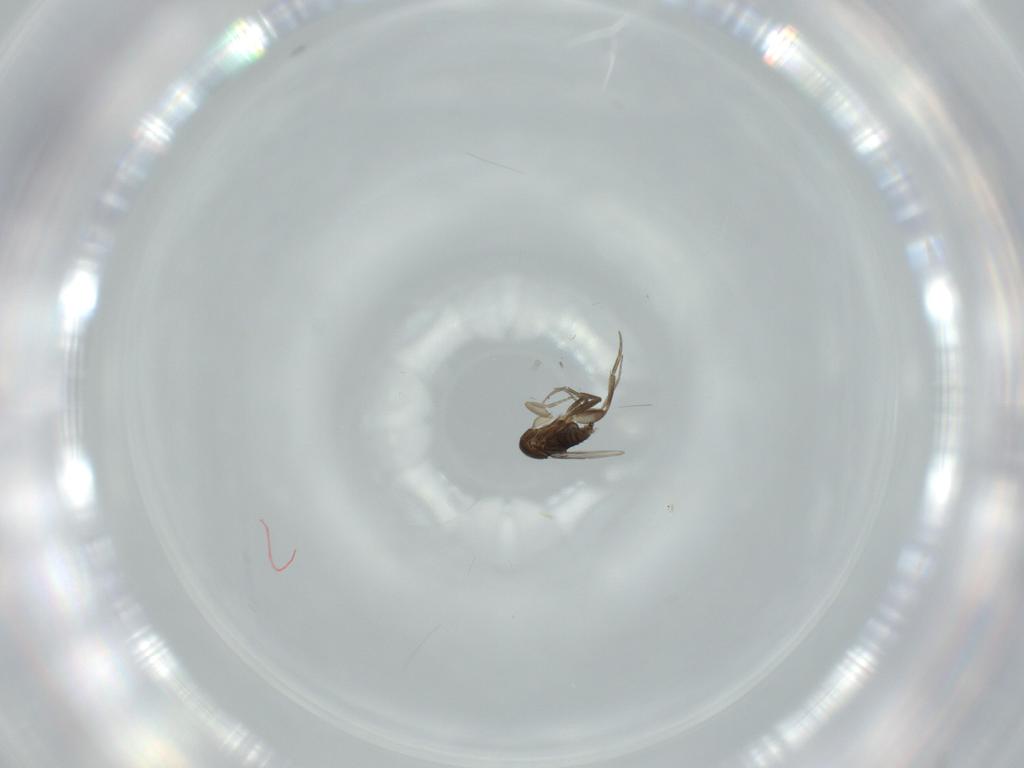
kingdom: Animalia
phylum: Arthropoda
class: Insecta
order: Diptera
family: Phoridae
